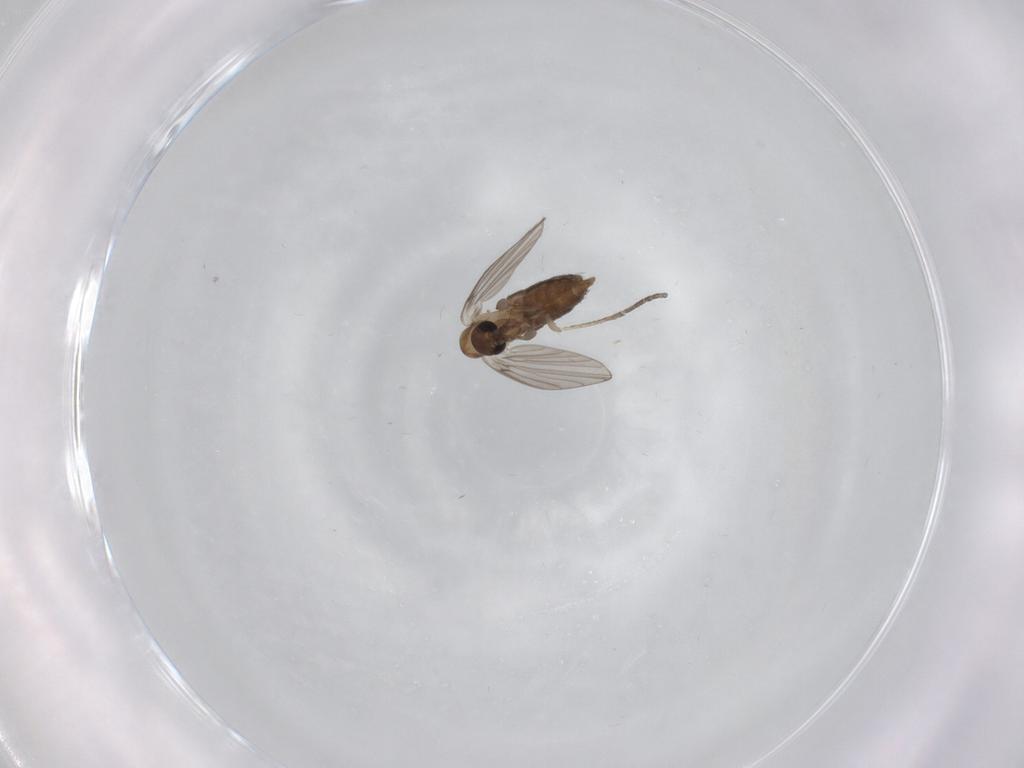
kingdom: Animalia
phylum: Arthropoda
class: Insecta
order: Diptera
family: Psychodidae
